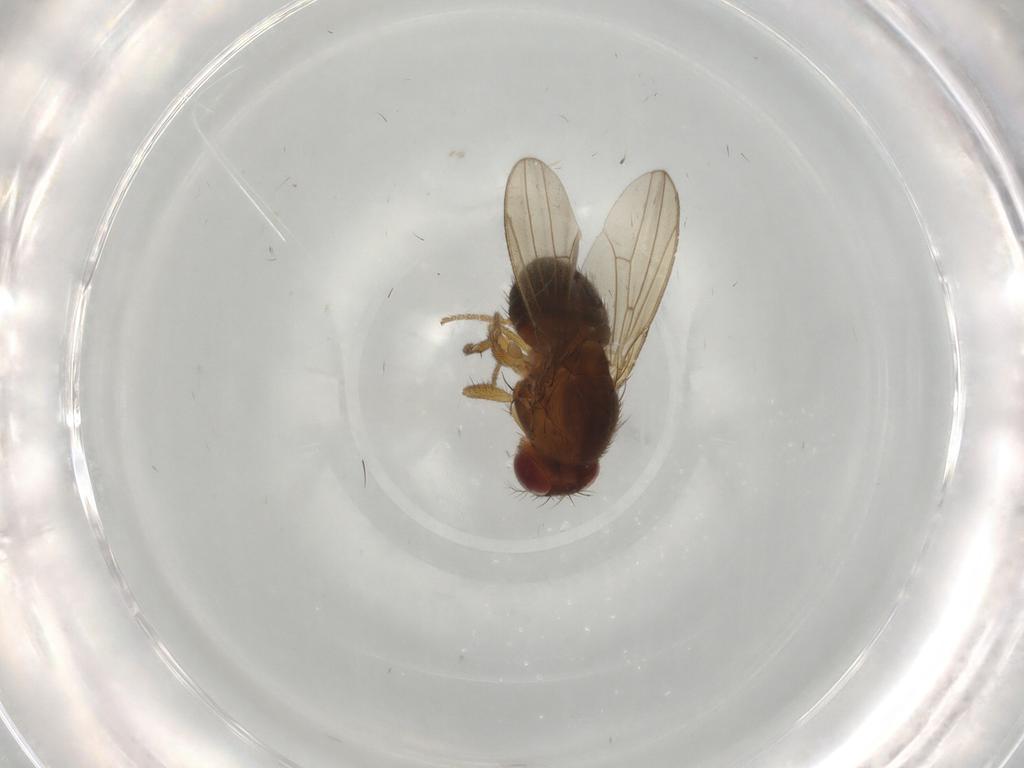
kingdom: Animalia
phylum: Arthropoda
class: Insecta
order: Diptera
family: Drosophilidae
